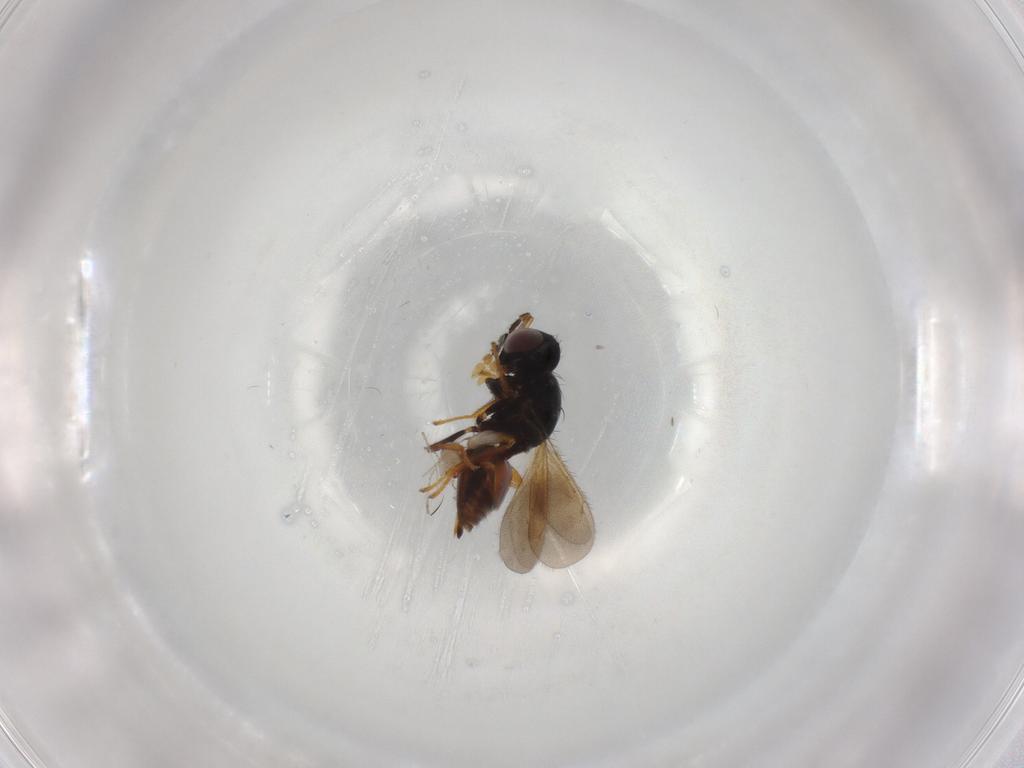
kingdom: Animalia
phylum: Arthropoda
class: Insecta
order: Hymenoptera
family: Eulophidae
